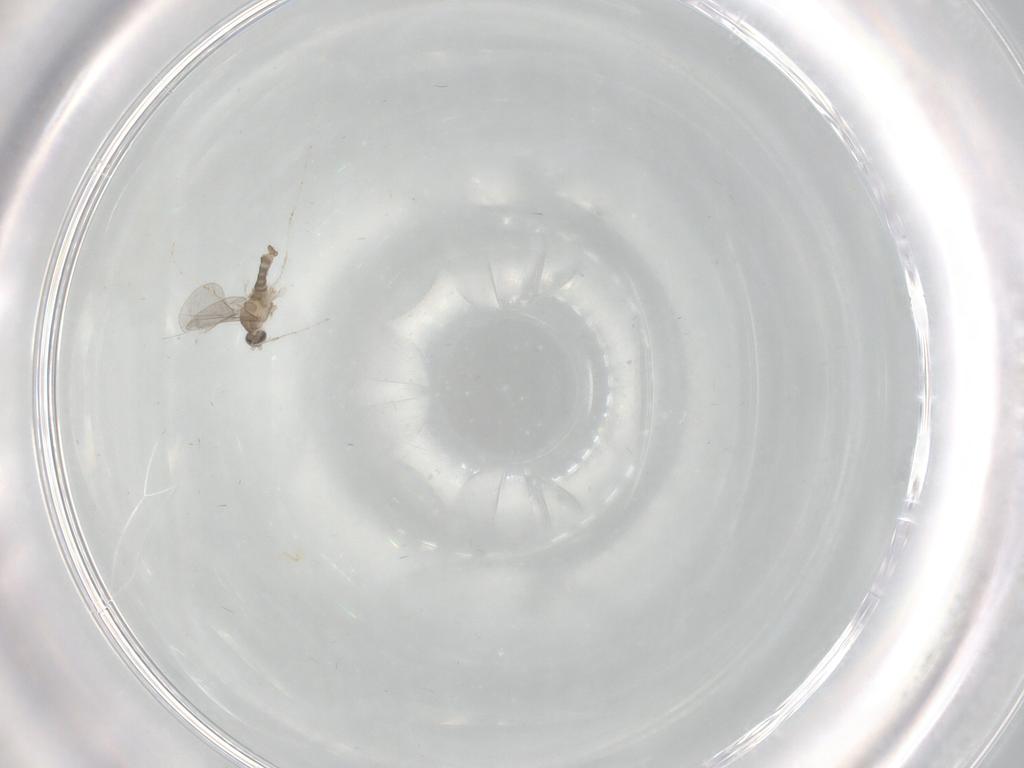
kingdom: Animalia
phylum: Arthropoda
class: Insecta
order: Diptera
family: Cecidomyiidae
